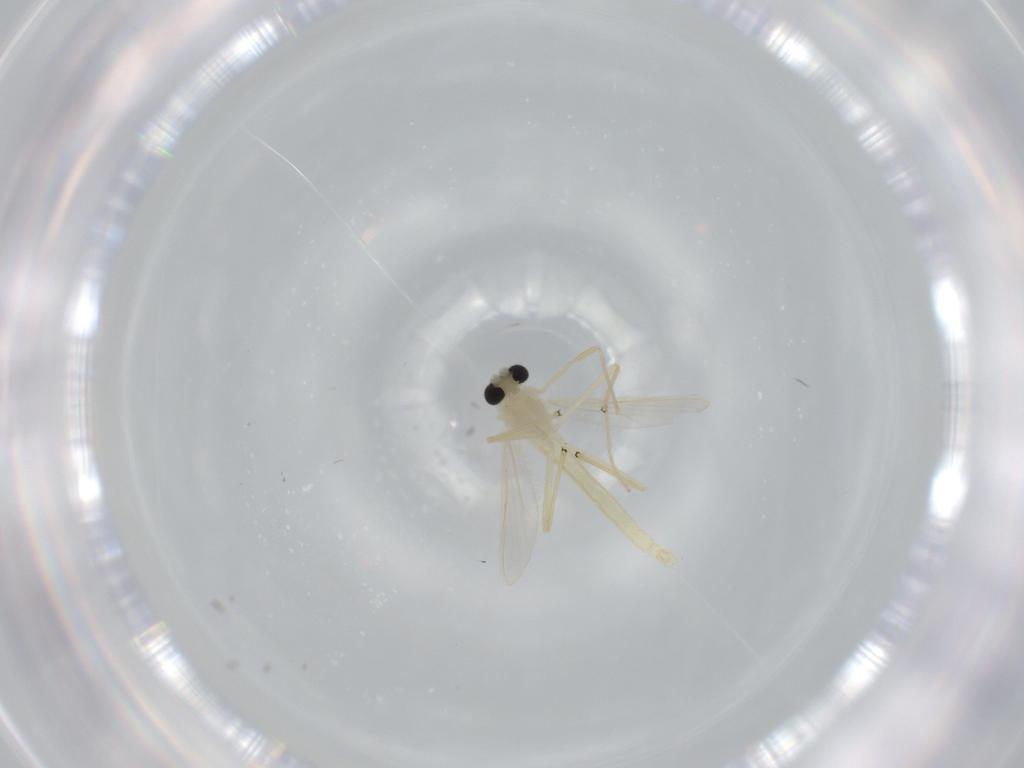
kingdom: Animalia
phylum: Arthropoda
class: Insecta
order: Diptera
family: Chironomidae
